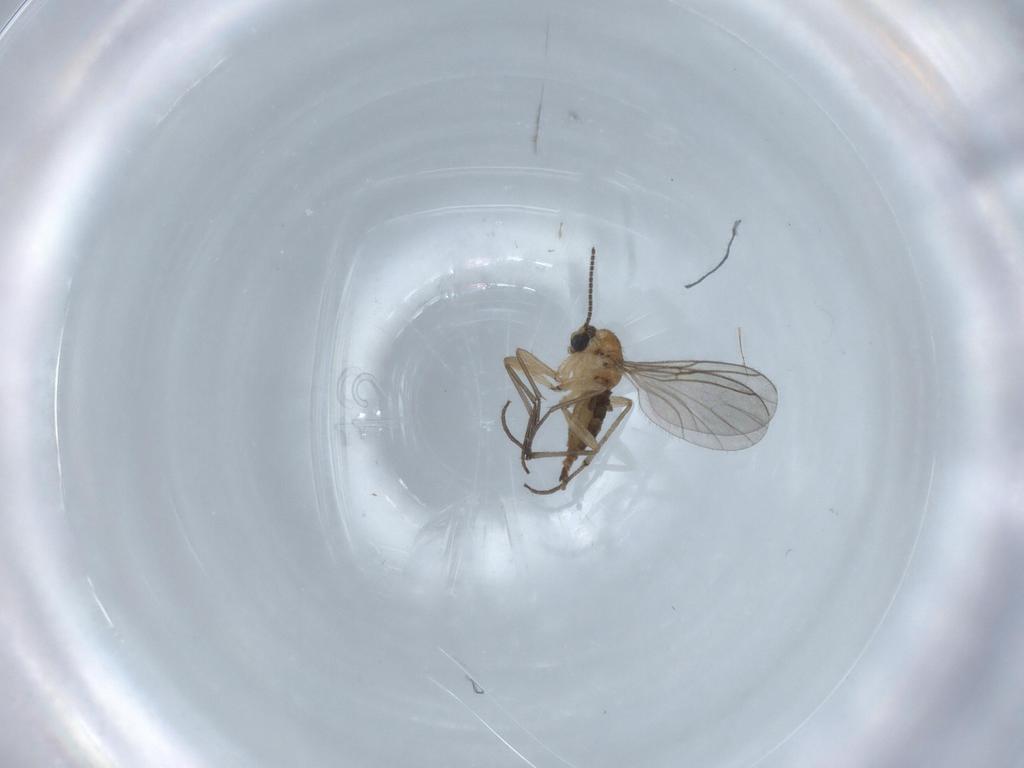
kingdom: Animalia
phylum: Arthropoda
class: Insecta
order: Diptera
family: Sciaridae
